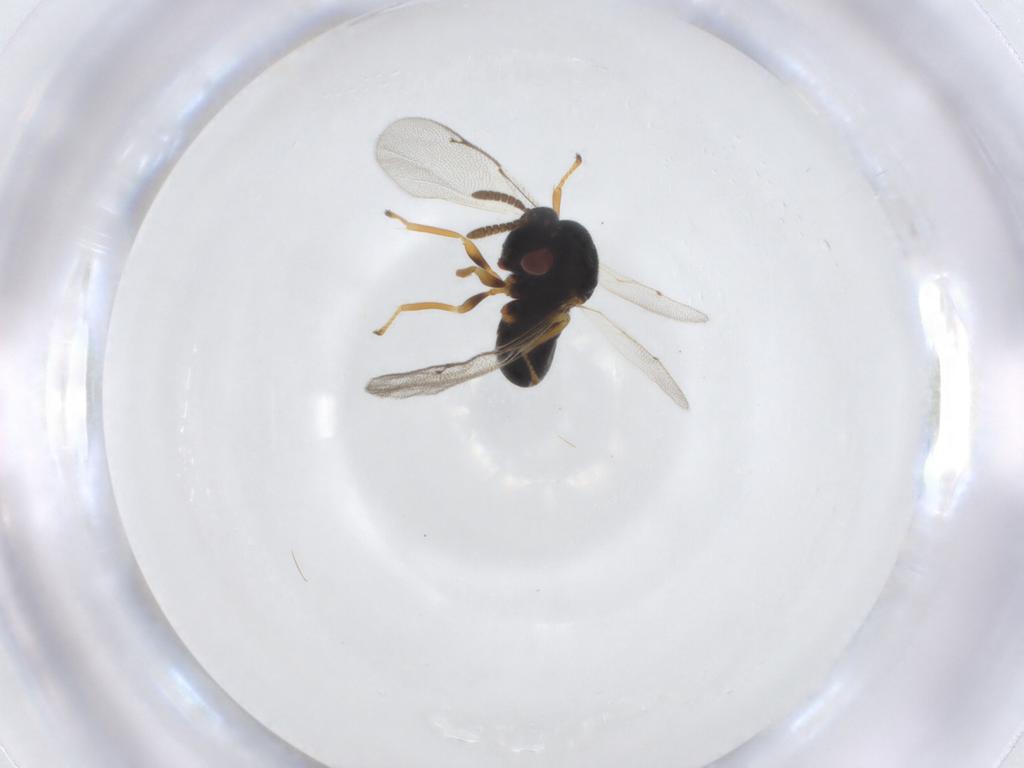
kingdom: Animalia
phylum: Arthropoda
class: Insecta
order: Hymenoptera
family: Pteromalidae
